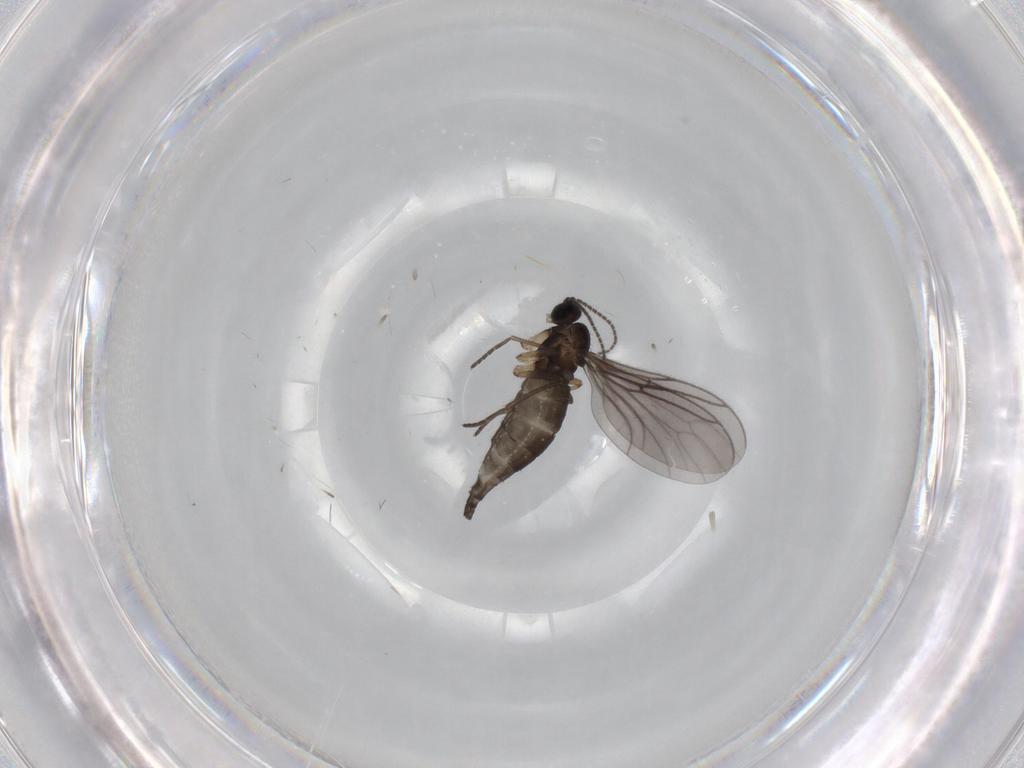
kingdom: Animalia
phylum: Arthropoda
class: Insecta
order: Diptera
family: Sciaridae
